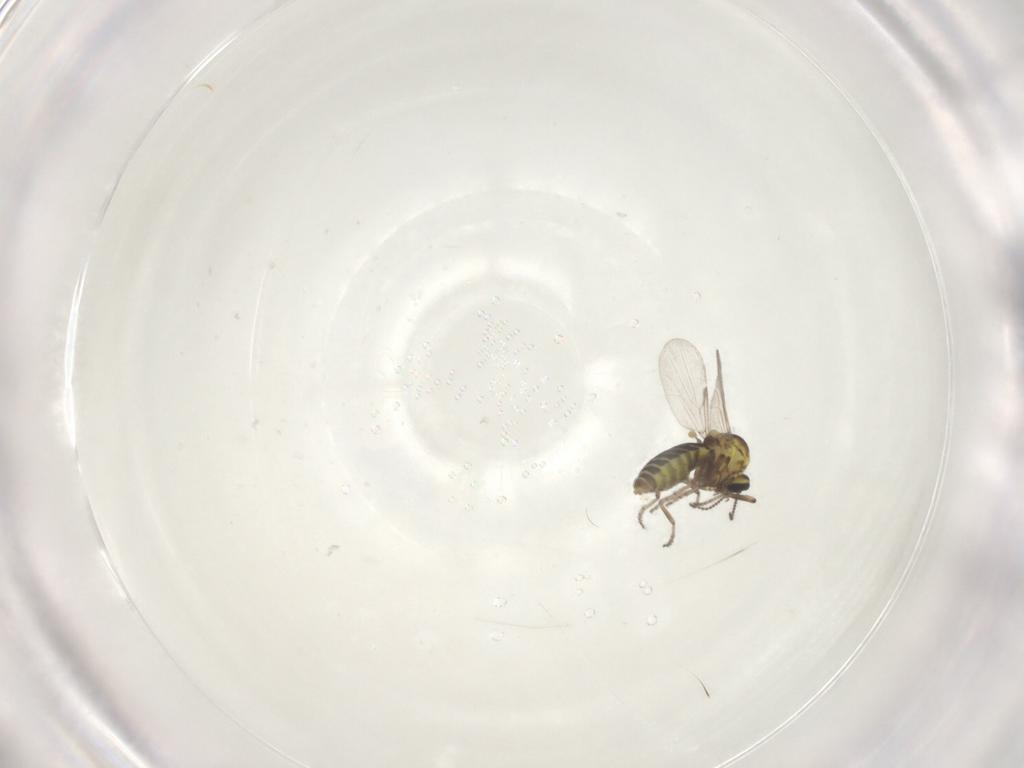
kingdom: Animalia
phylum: Arthropoda
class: Insecta
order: Diptera
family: Ceratopogonidae
